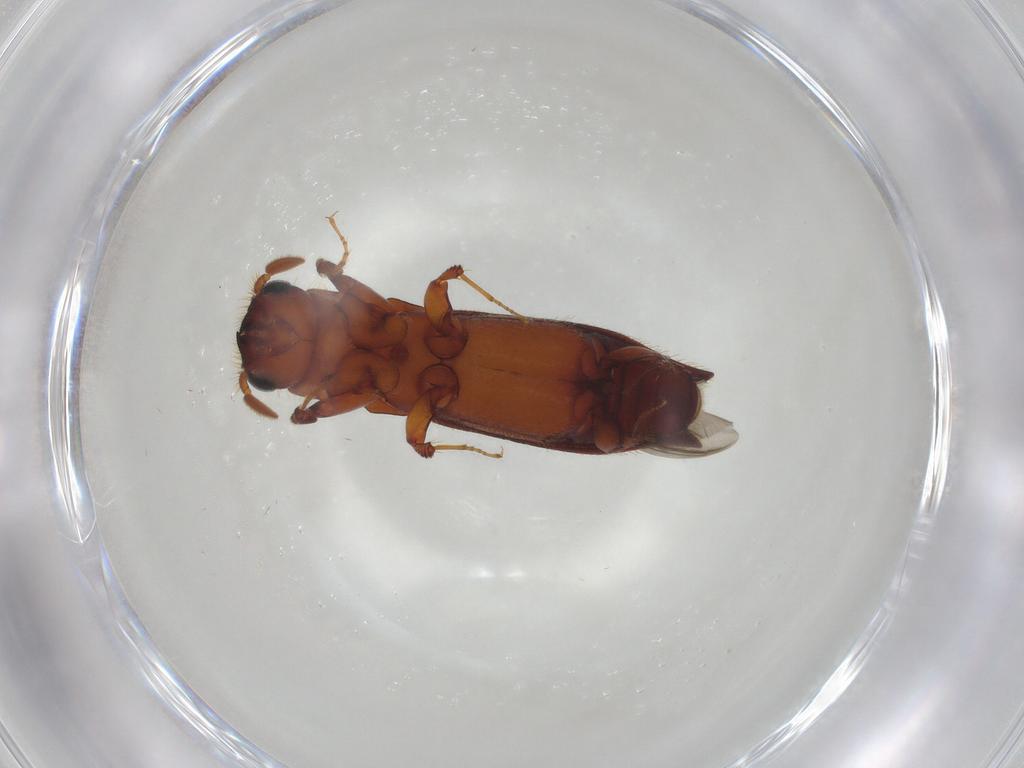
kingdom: Animalia
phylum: Arthropoda
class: Insecta
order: Coleoptera
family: Curculionidae
